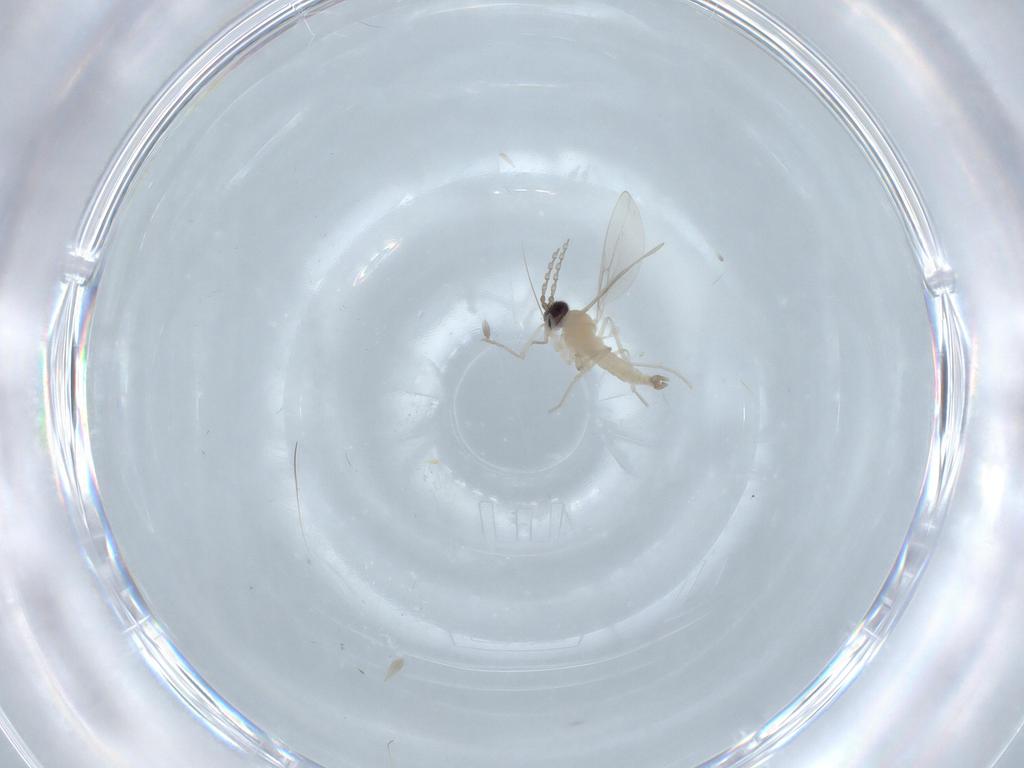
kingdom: Animalia
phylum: Arthropoda
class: Insecta
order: Diptera
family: Cecidomyiidae
